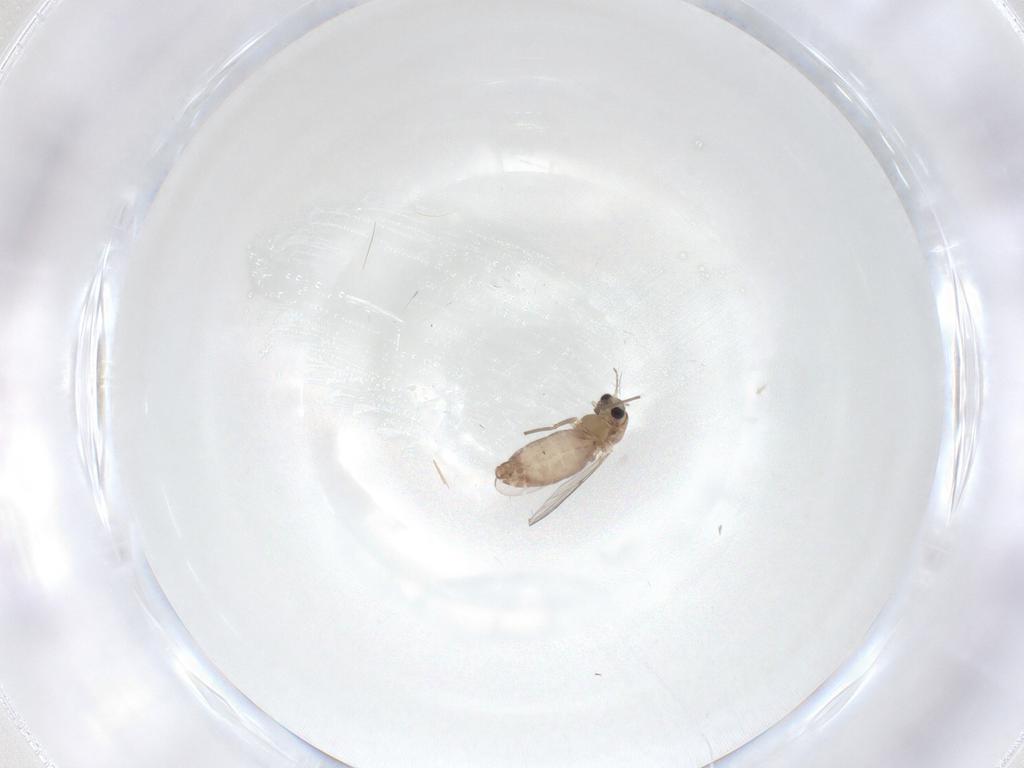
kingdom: Animalia
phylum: Arthropoda
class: Insecta
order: Diptera
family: Chironomidae
